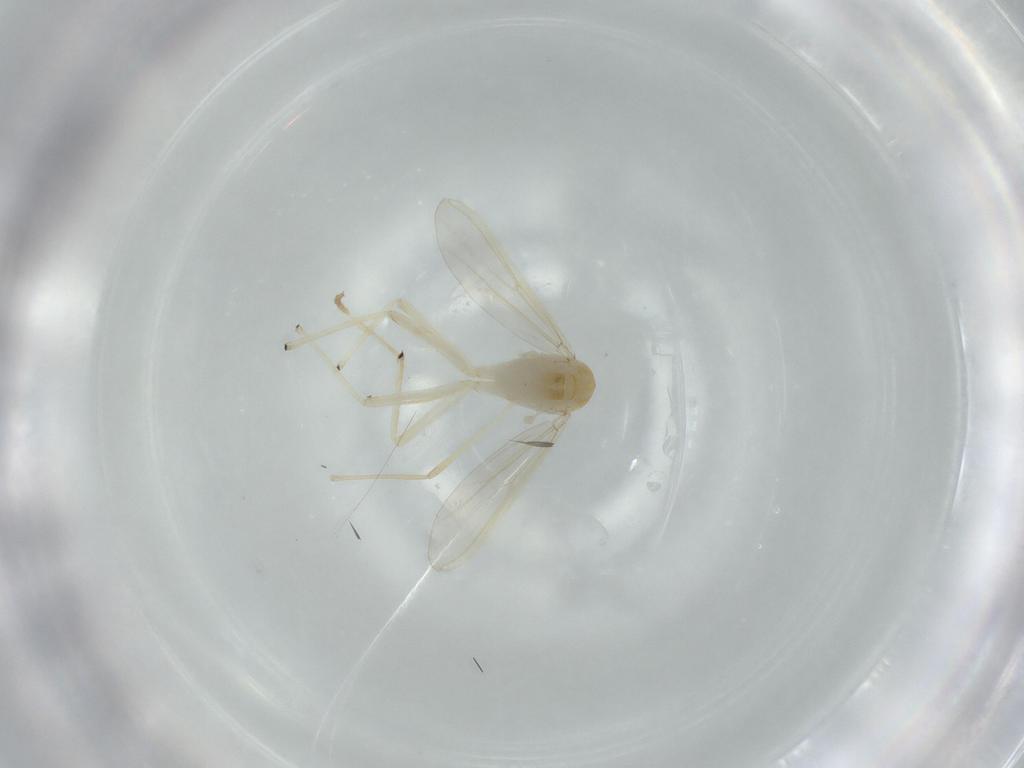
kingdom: Animalia
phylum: Arthropoda
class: Insecta
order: Diptera
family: Chironomidae
